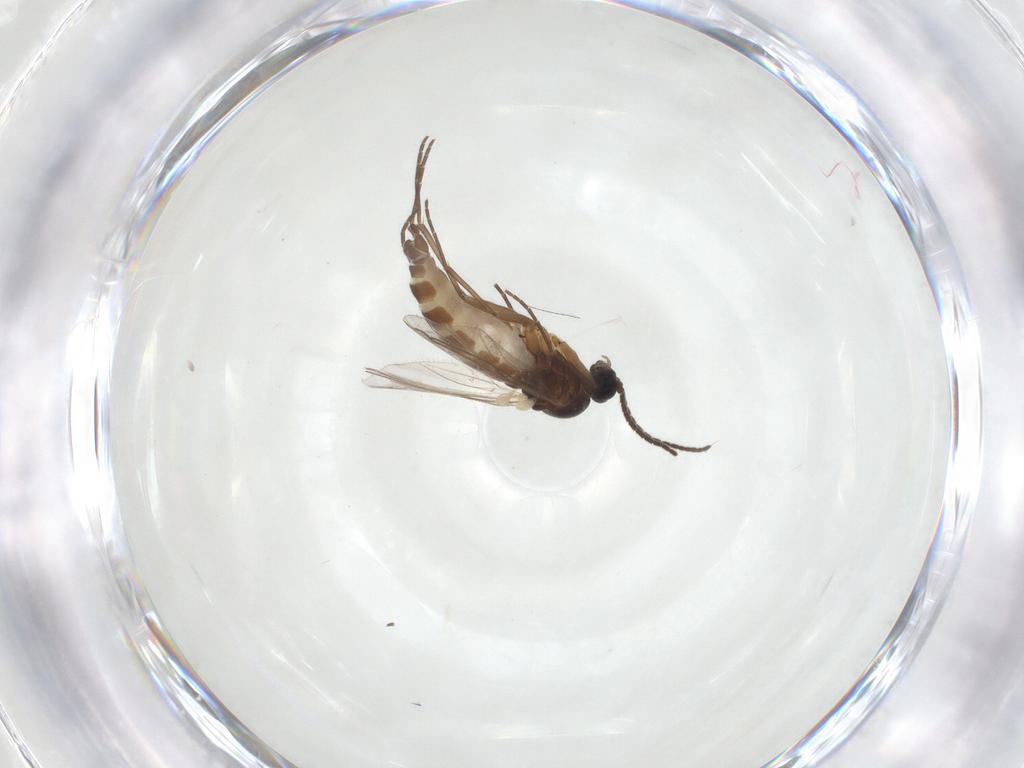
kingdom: Animalia
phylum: Arthropoda
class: Insecta
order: Diptera
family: Sciaridae
